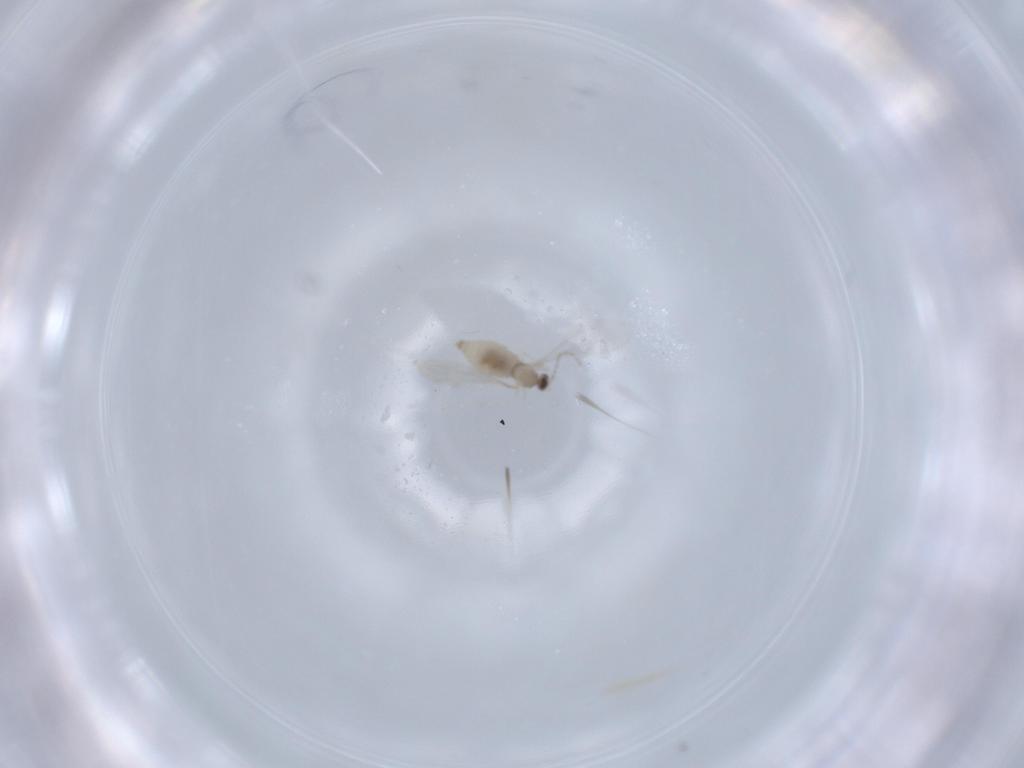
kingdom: Animalia
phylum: Arthropoda
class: Insecta
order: Diptera
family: Cecidomyiidae
